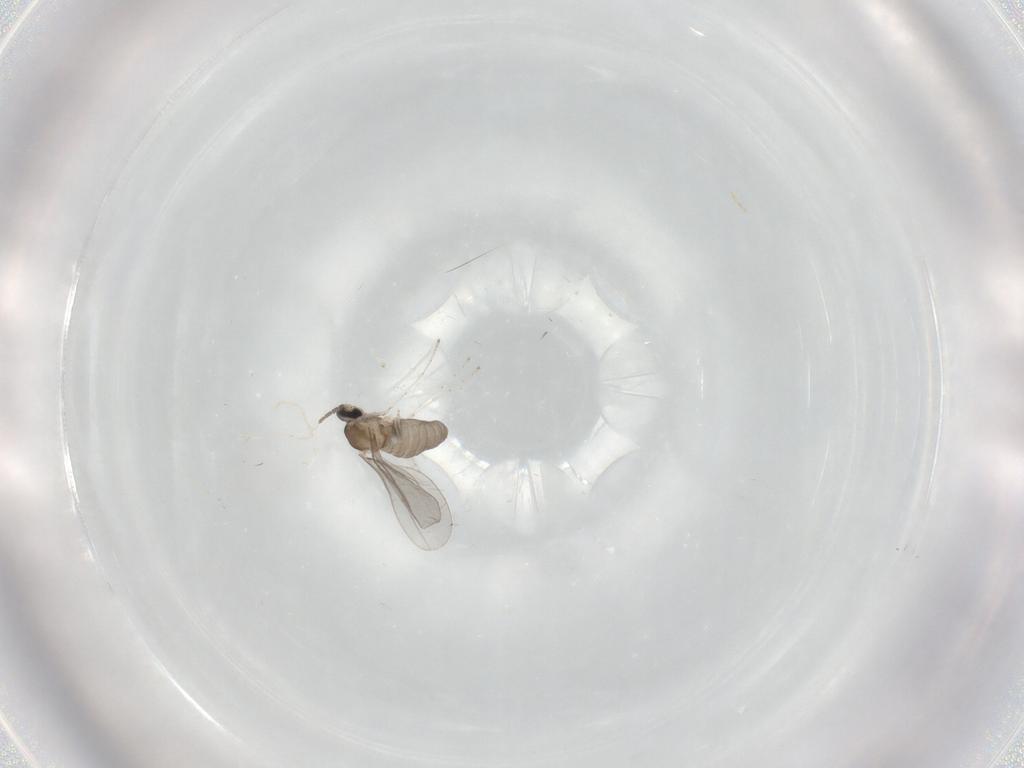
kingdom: Animalia
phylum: Arthropoda
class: Insecta
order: Diptera
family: Cecidomyiidae
